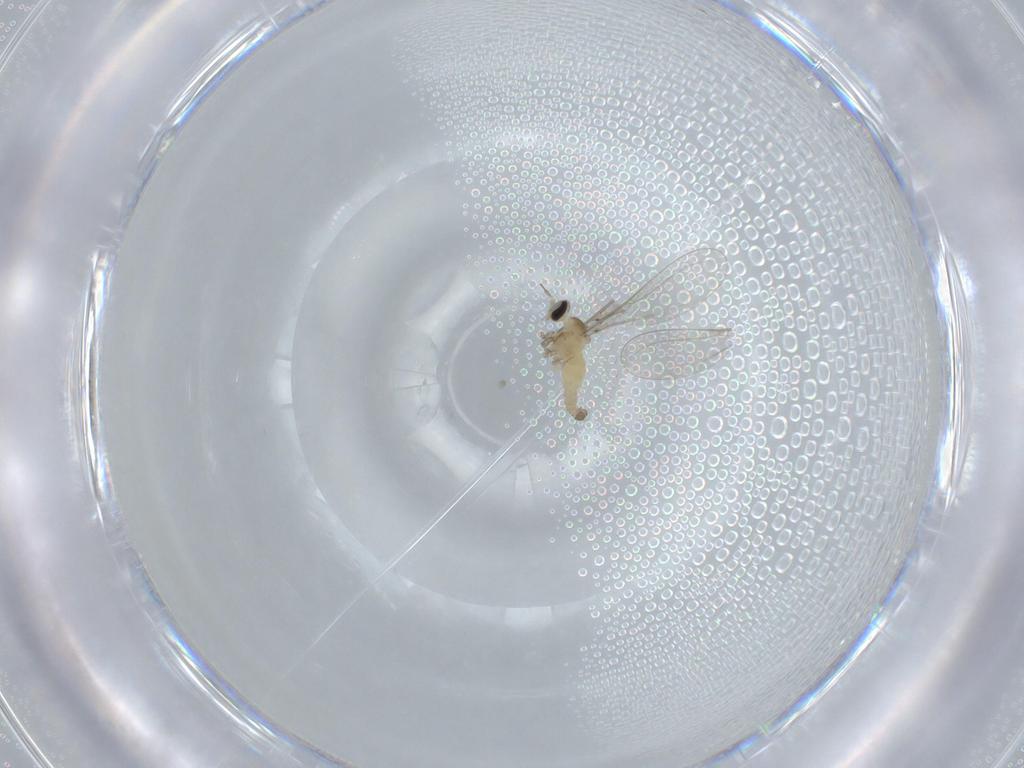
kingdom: Animalia
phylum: Arthropoda
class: Insecta
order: Diptera
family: Cecidomyiidae
